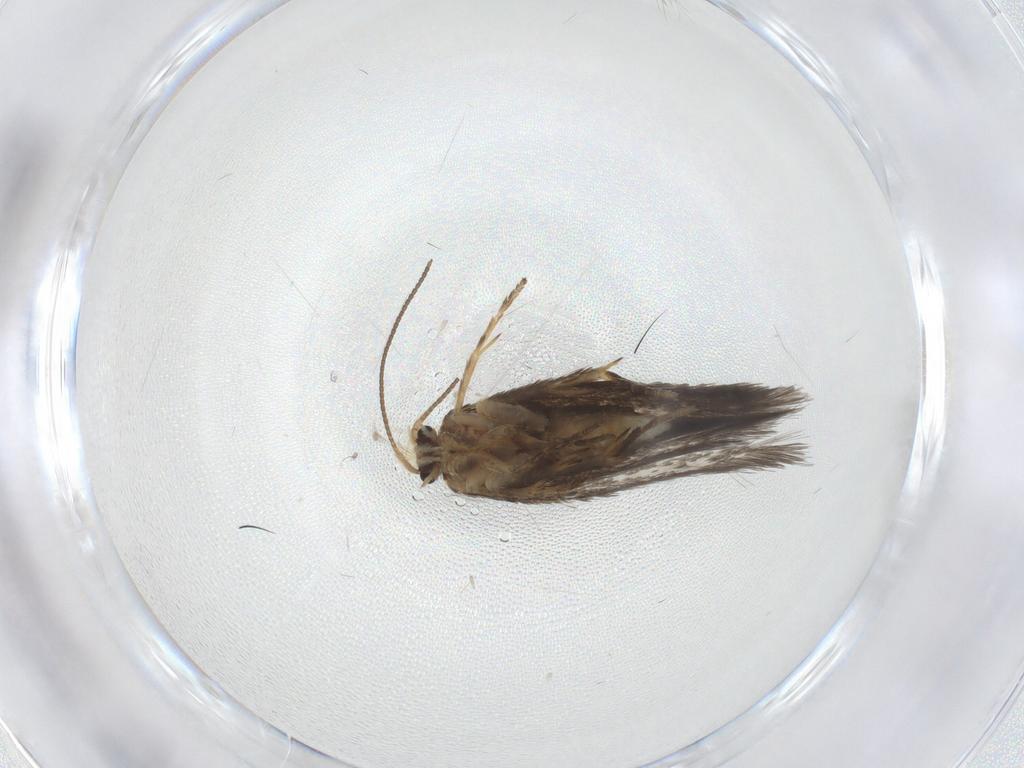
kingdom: Animalia
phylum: Arthropoda
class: Insecta
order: Lepidoptera
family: Nepticulidae
